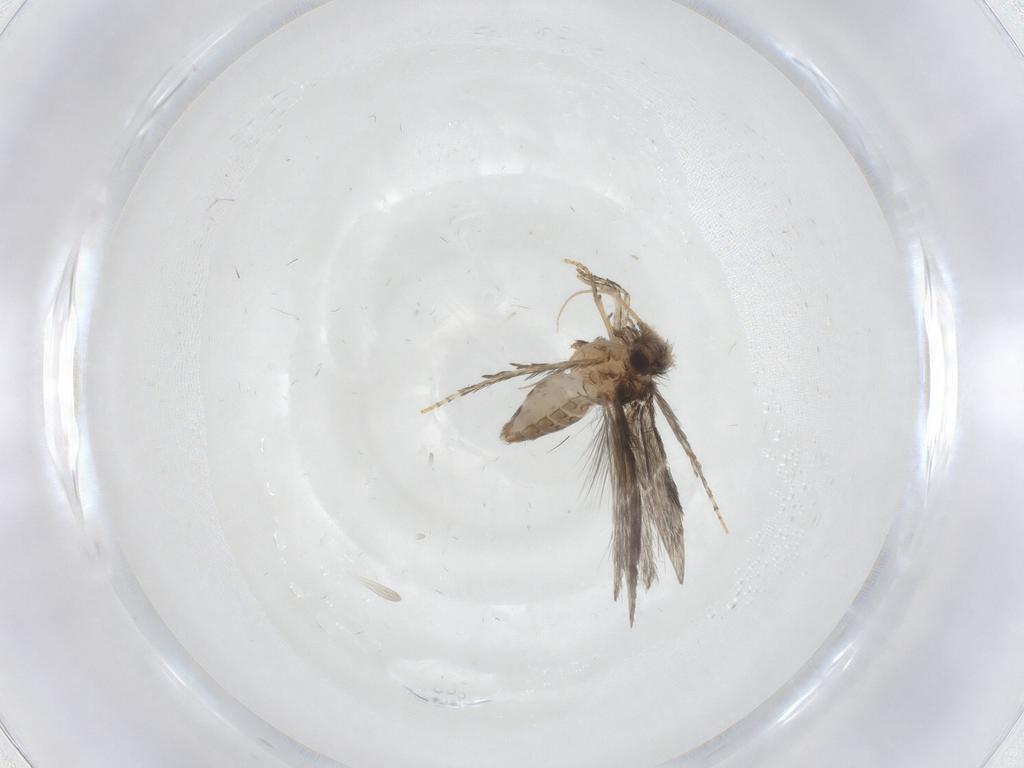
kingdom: Animalia
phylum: Arthropoda
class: Insecta
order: Trichoptera
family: Hydroptilidae
